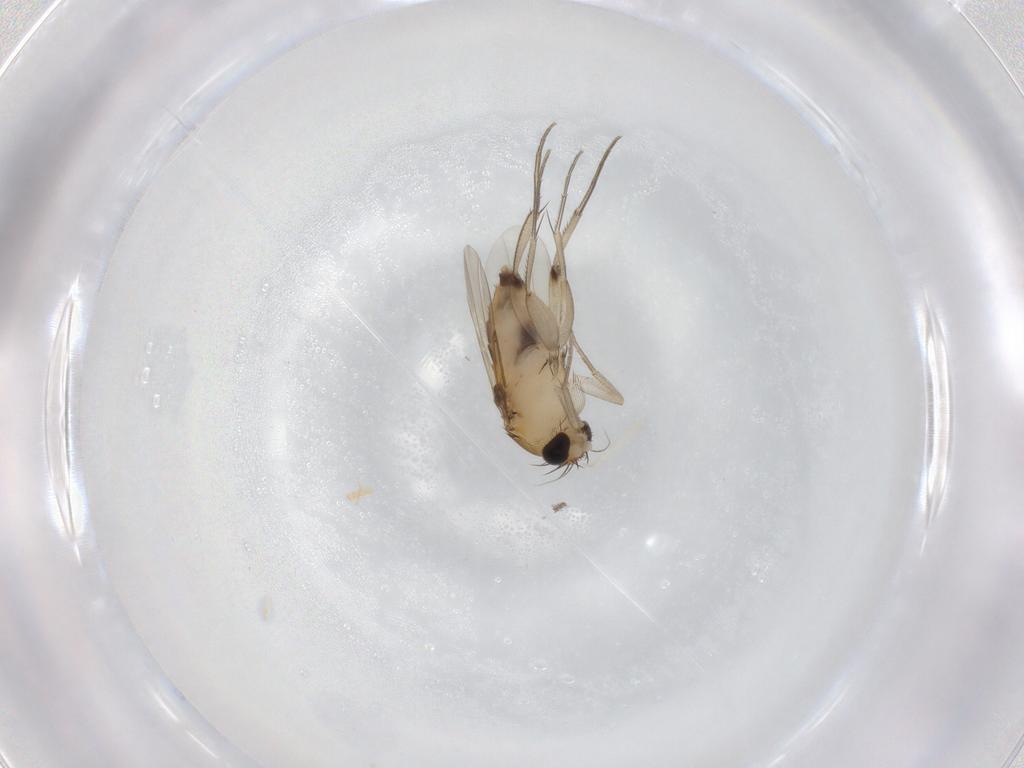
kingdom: Animalia
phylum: Arthropoda
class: Insecta
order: Diptera
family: Phoridae
